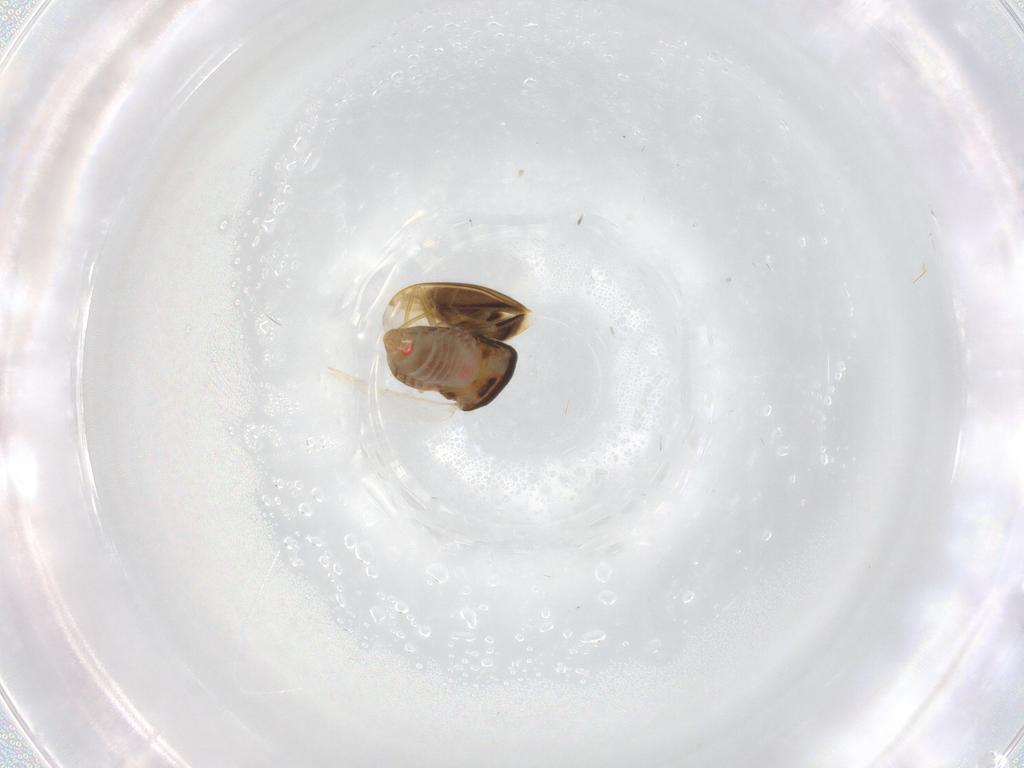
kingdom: Animalia
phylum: Arthropoda
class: Insecta
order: Hemiptera
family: Schizopteridae
